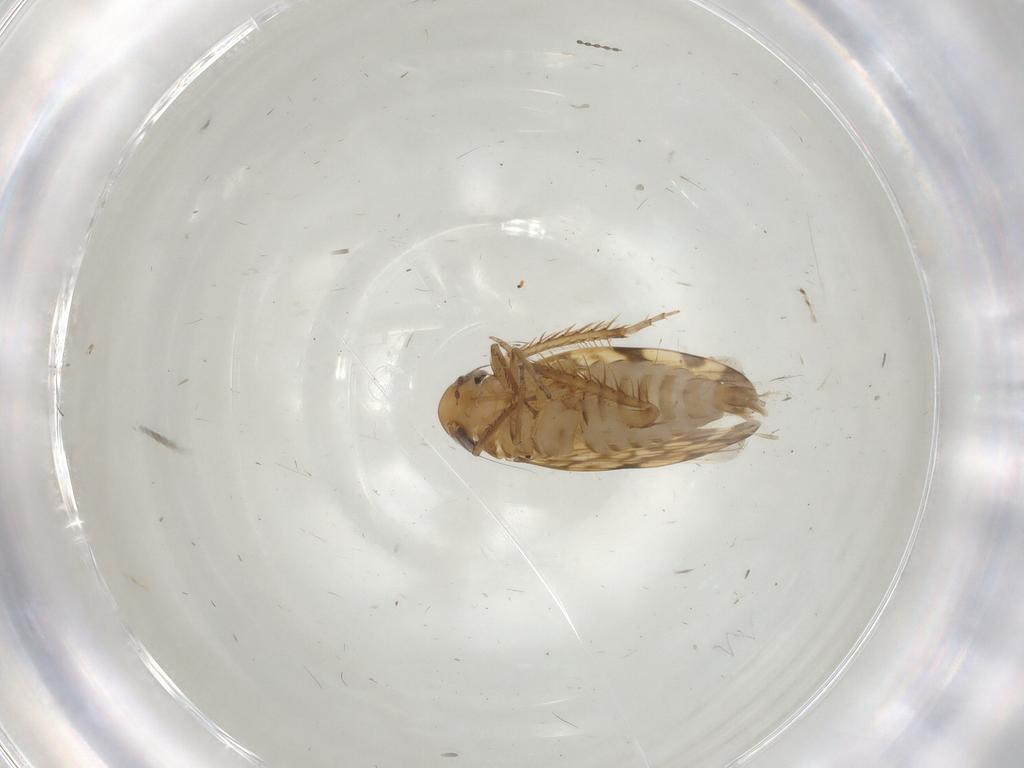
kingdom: Animalia
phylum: Arthropoda
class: Insecta
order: Hemiptera
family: Cicadellidae
